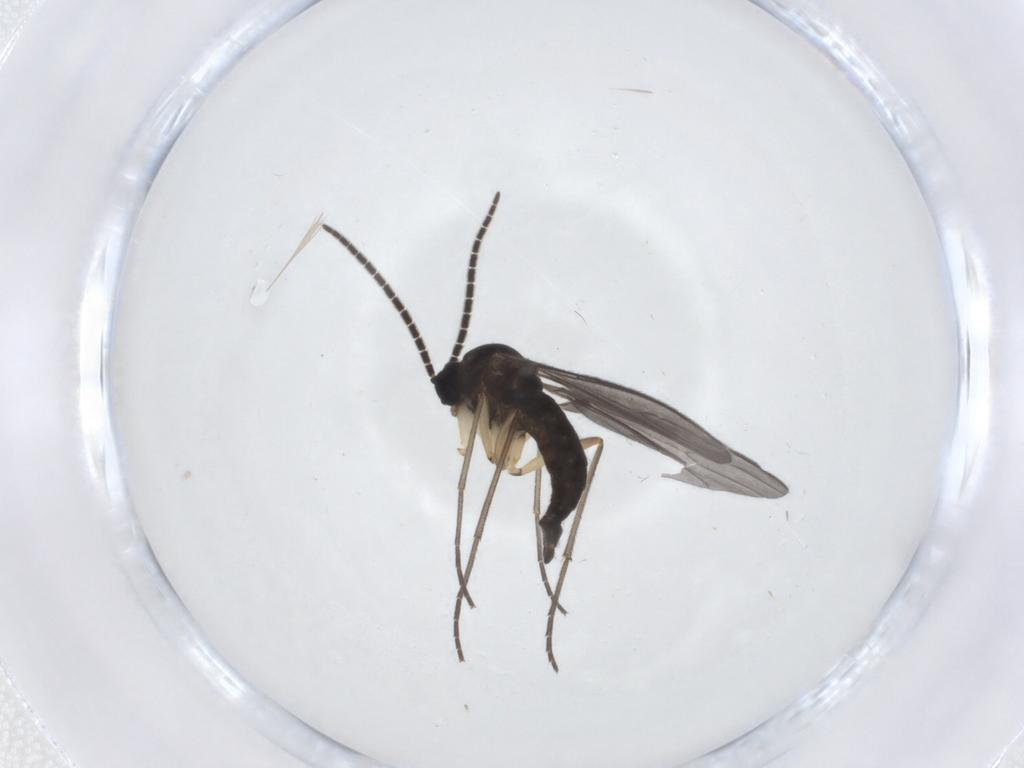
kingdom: Animalia
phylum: Arthropoda
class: Insecta
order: Diptera
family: Sciaridae
